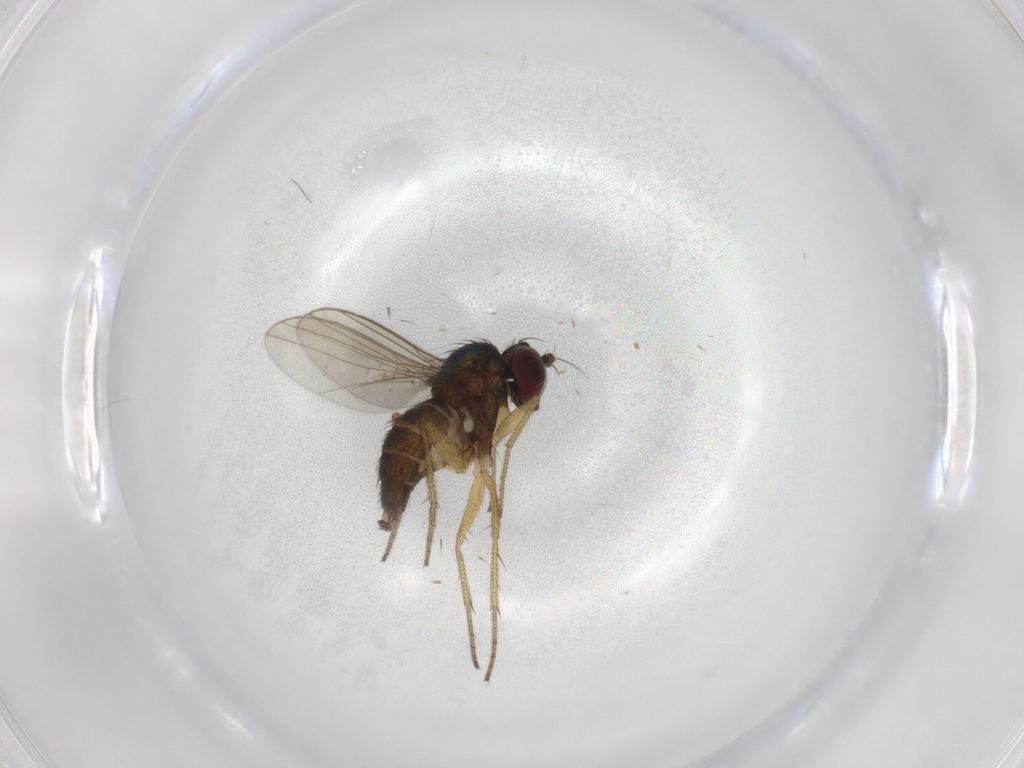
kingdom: Animalia
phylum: Arthropoda
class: Insecta
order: Diptera
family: Dolichopodidae
